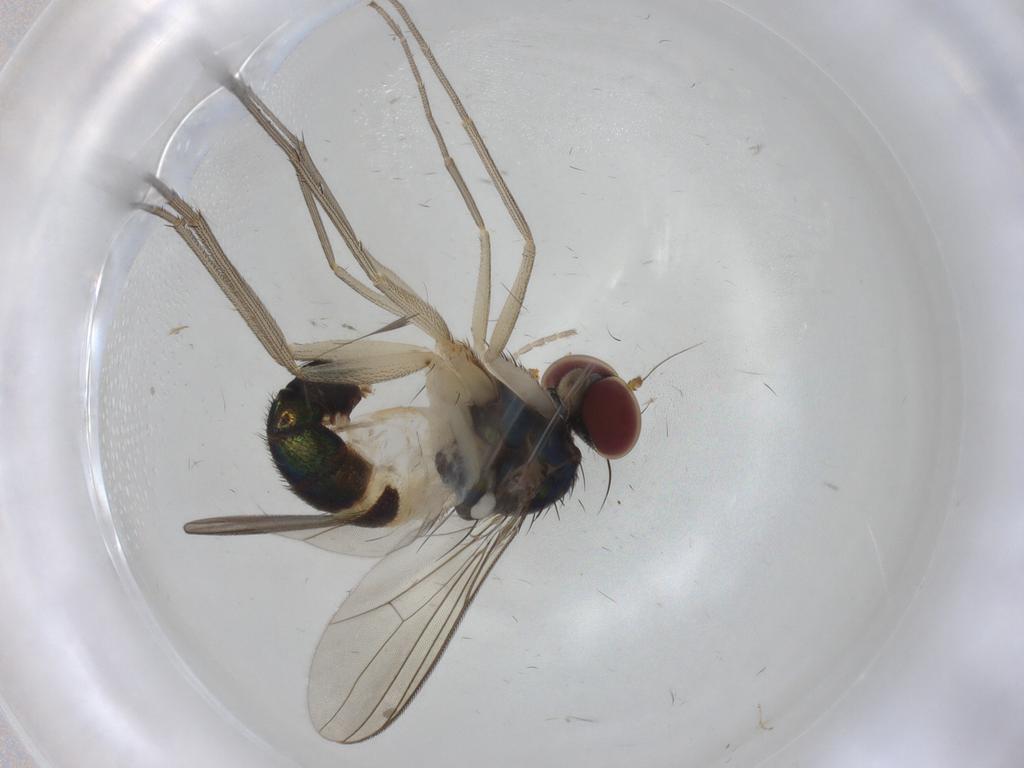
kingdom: Animalia
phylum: Arthropoda
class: Insecta
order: Diptera
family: Dolichopodidae
